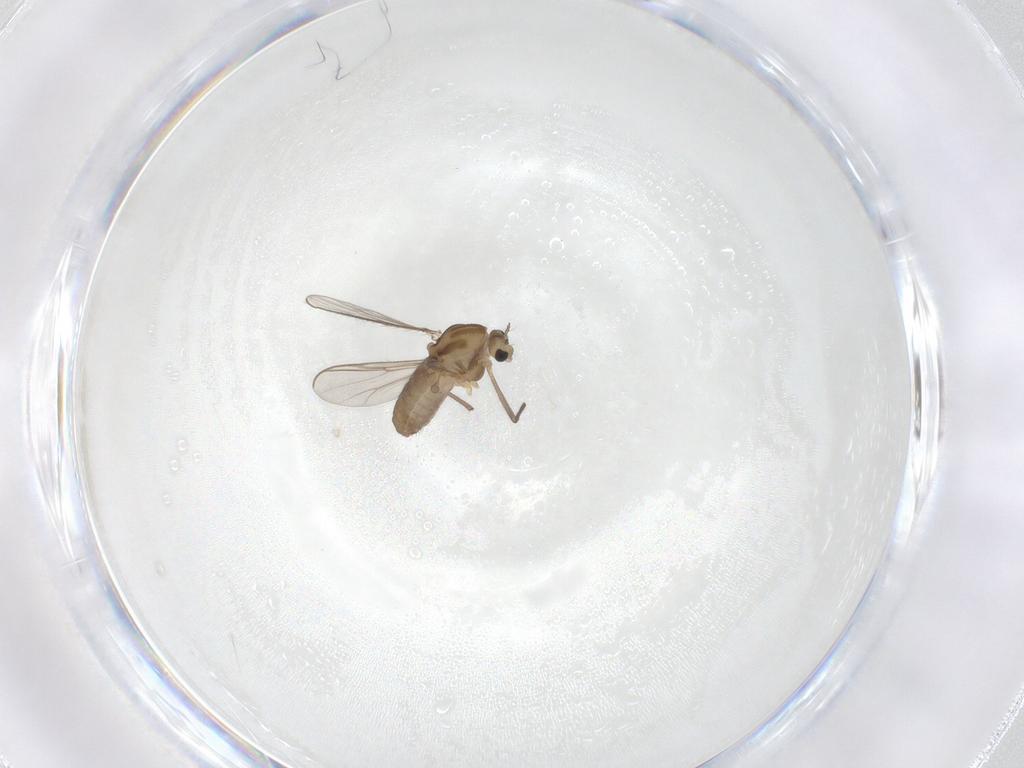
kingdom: Animalia
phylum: Arthropoda
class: Insecta
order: Diptera
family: Chironomidae
